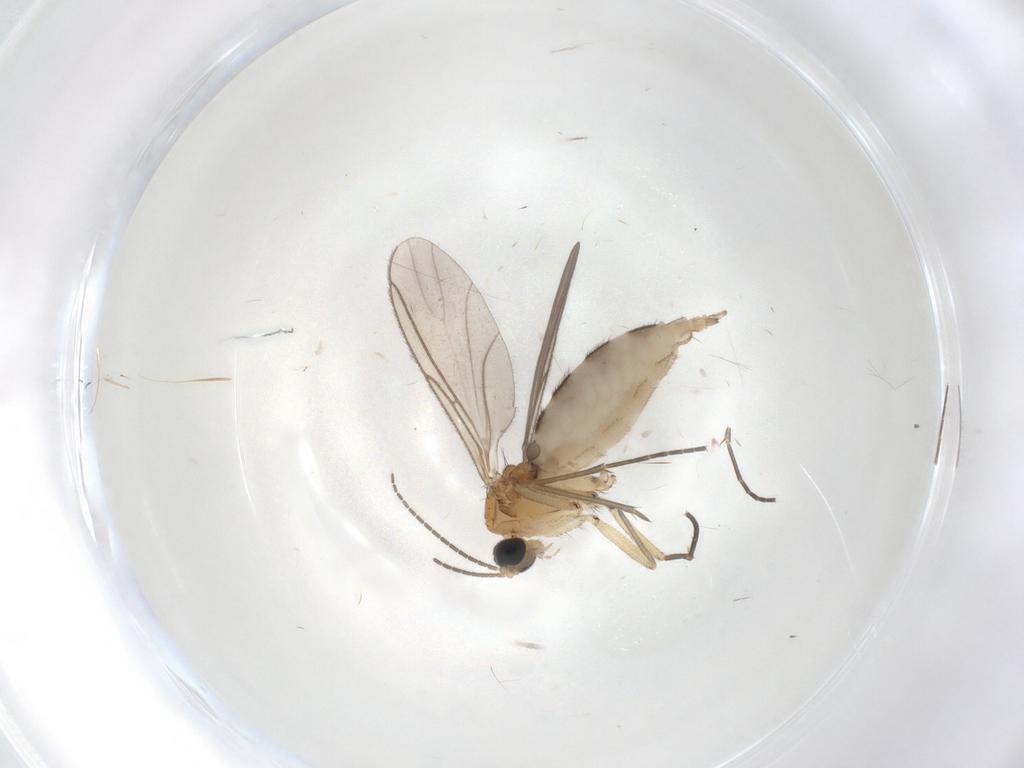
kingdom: Animalia
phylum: Arthropoda
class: Insecta
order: Diptera
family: Sciaridae
